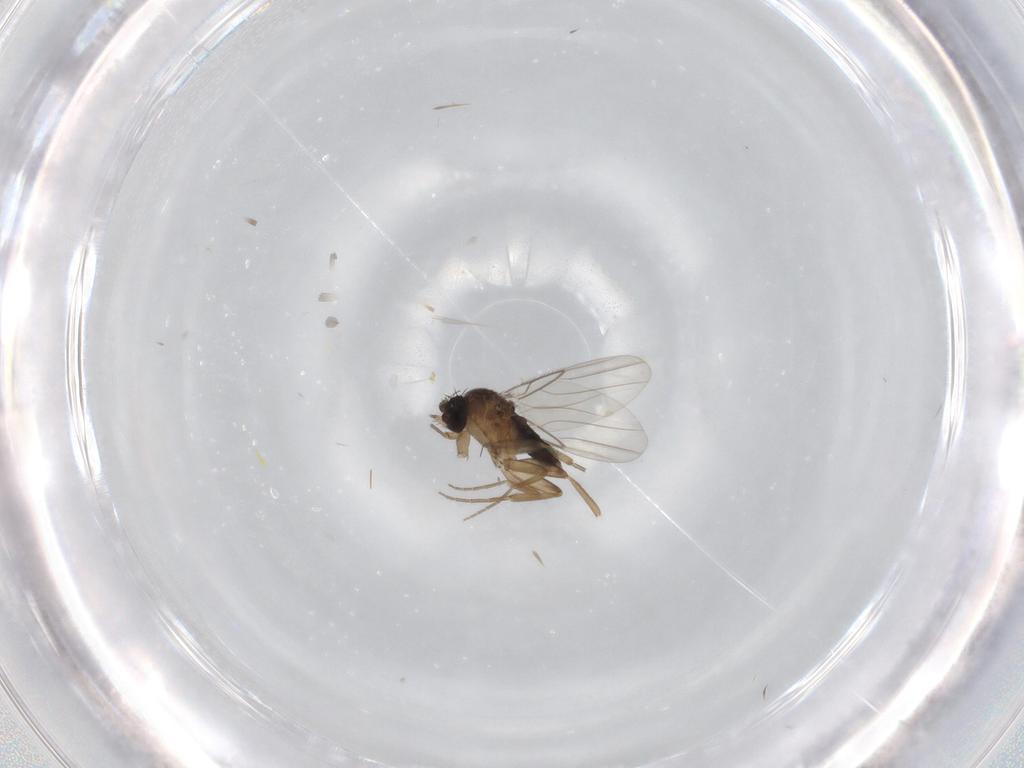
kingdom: Animalia
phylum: Arthropoda
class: Insecta
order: Diptera
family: Phoridae
